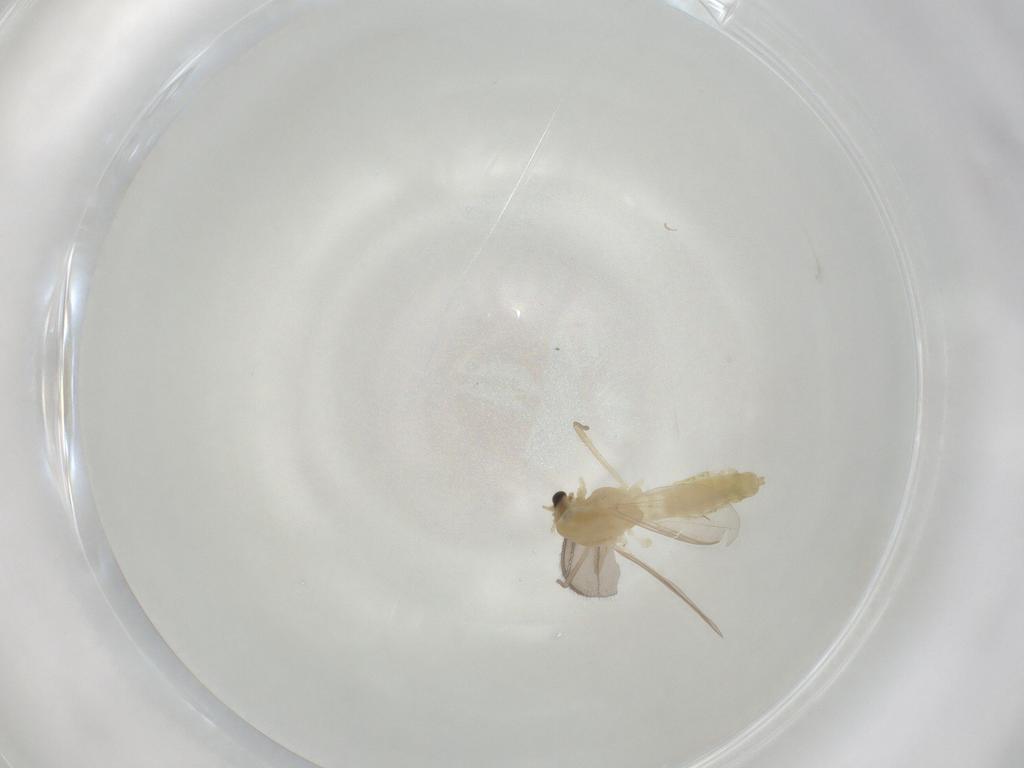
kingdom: Animalia
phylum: Arthropoda
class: Insecta
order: Diptera
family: Chironomidae
